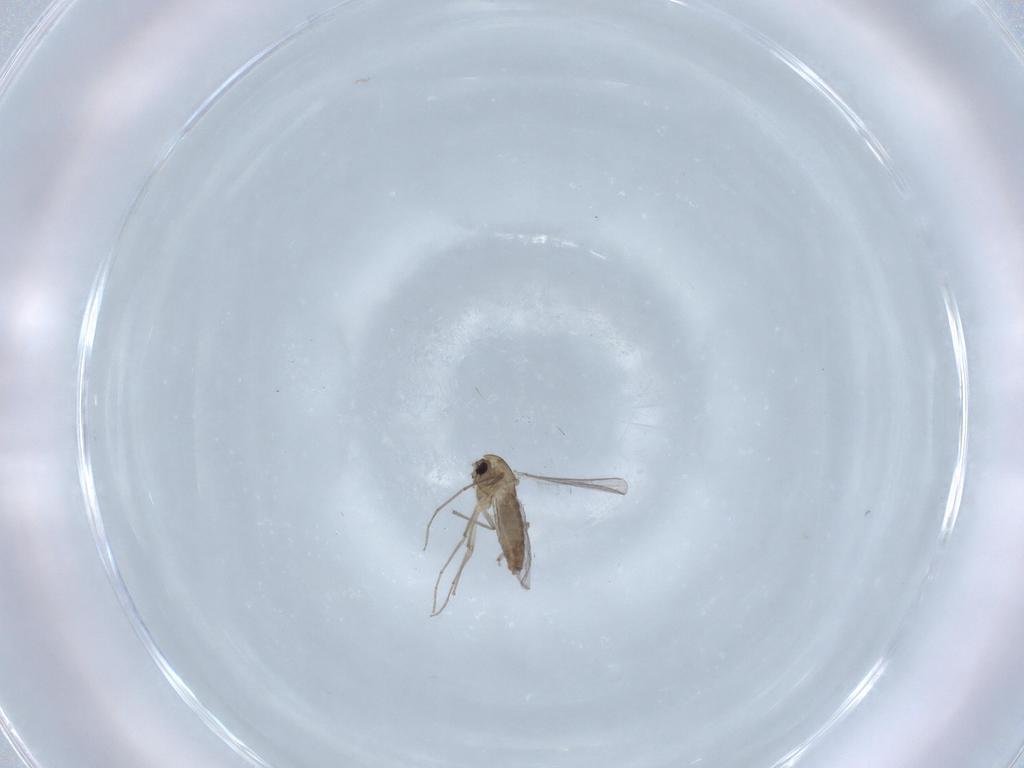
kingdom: Animalia
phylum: Arthropoda
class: Insecta
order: Diptera
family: Chironomidae
